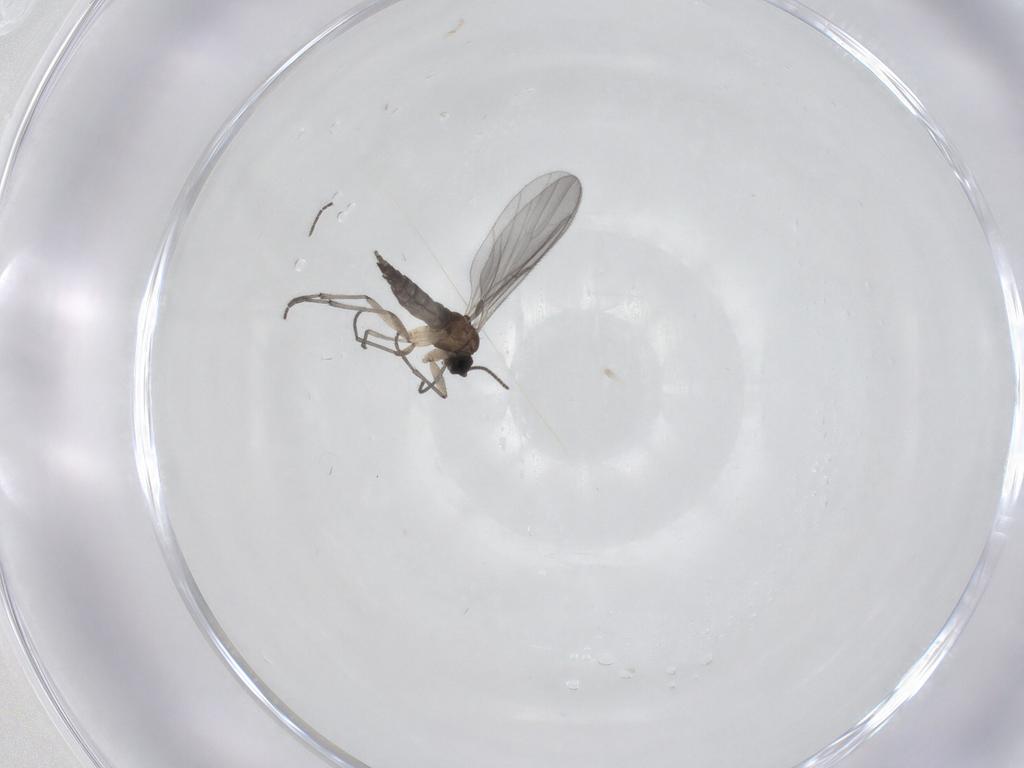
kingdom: Animalia
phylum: Arthropoda
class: Insecta
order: Diptera
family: Sciaridae
